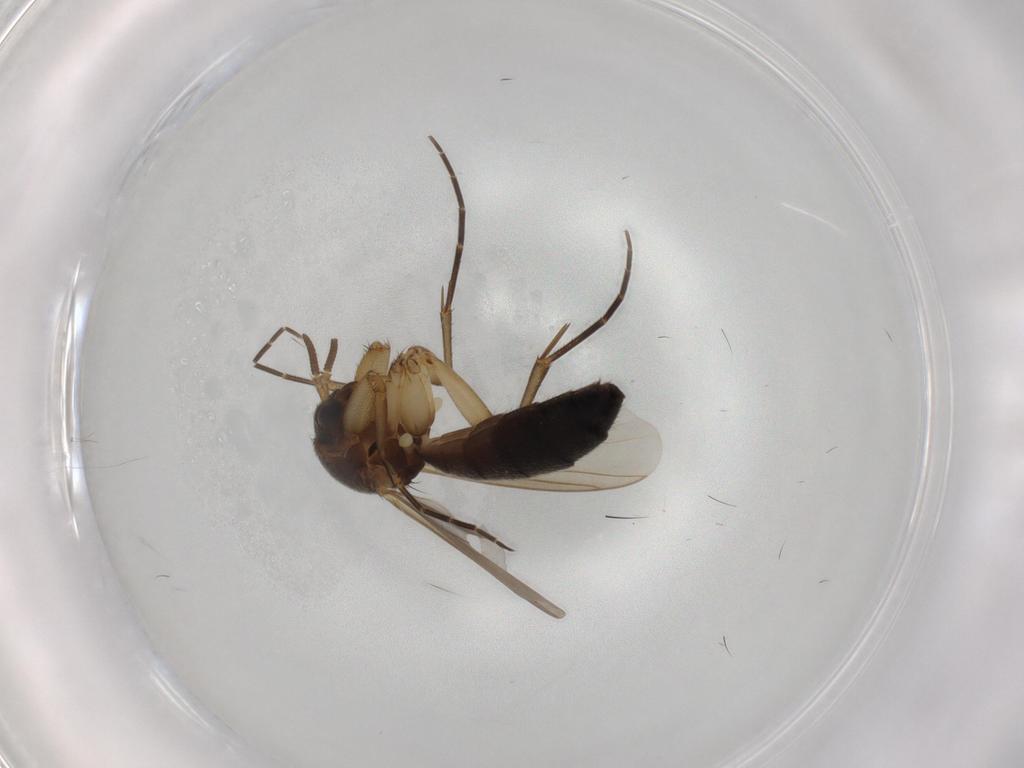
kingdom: Animalia
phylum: Arthropoda
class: Insecta
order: Diptera
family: Mycetophilidae
